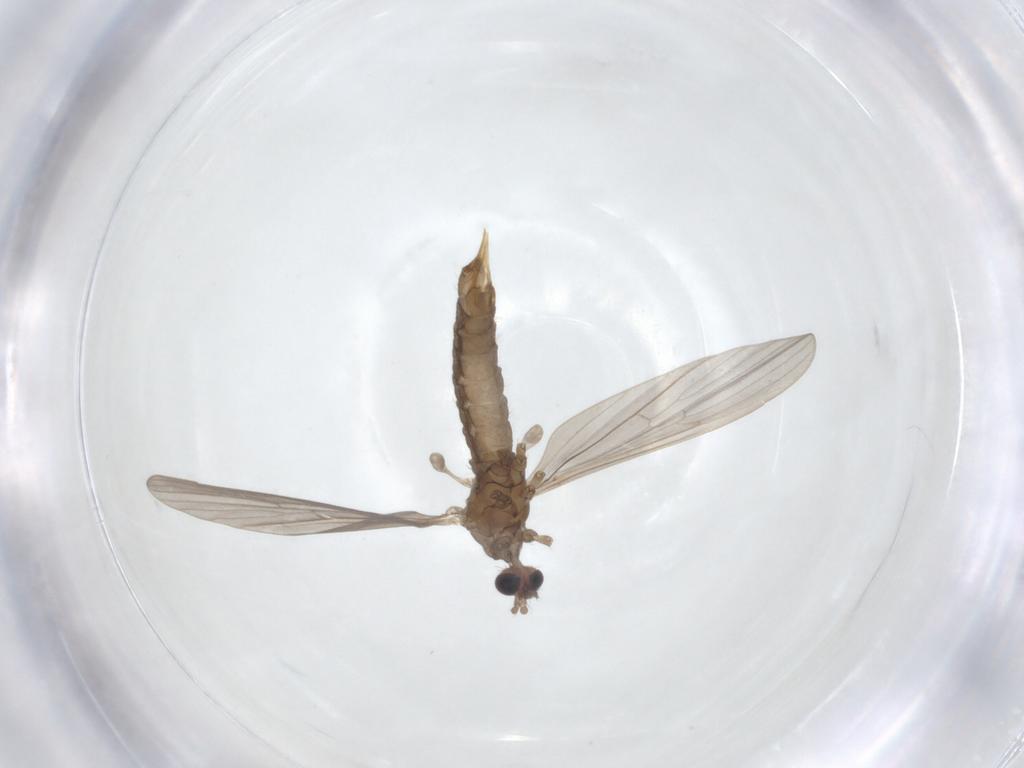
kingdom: Animalia
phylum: Arthropoda
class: Insecta
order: Diptera
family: Limoniidae
